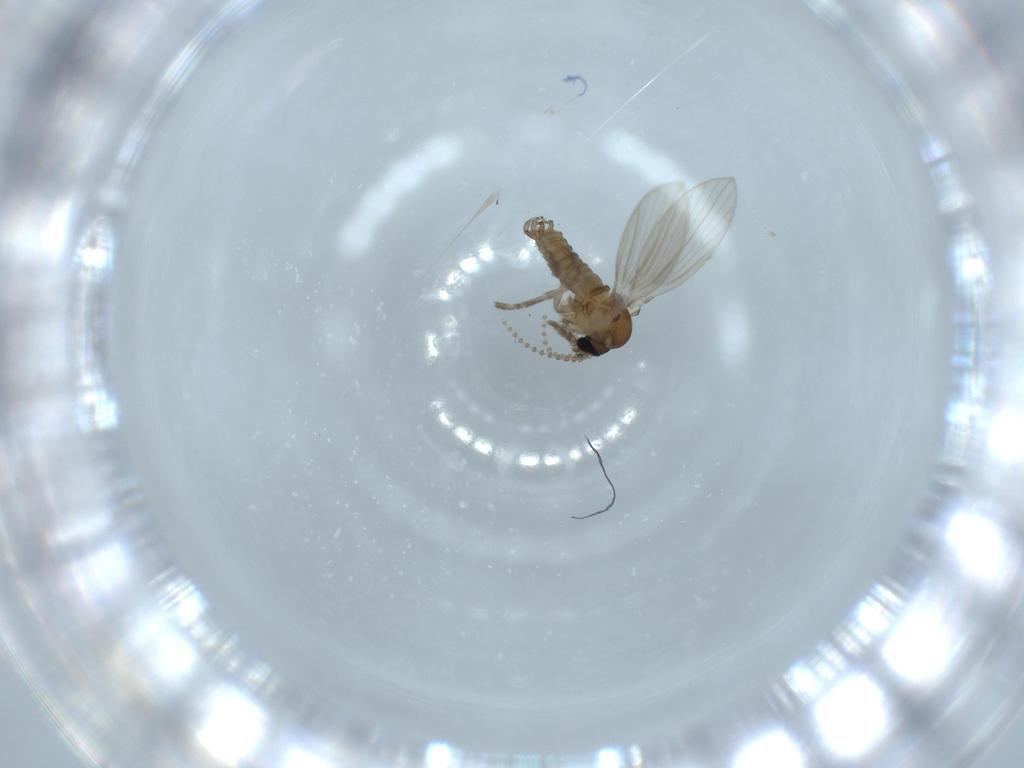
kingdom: Animalia
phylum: Arthropoda
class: Insecta
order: Diptera
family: Psychodidae
